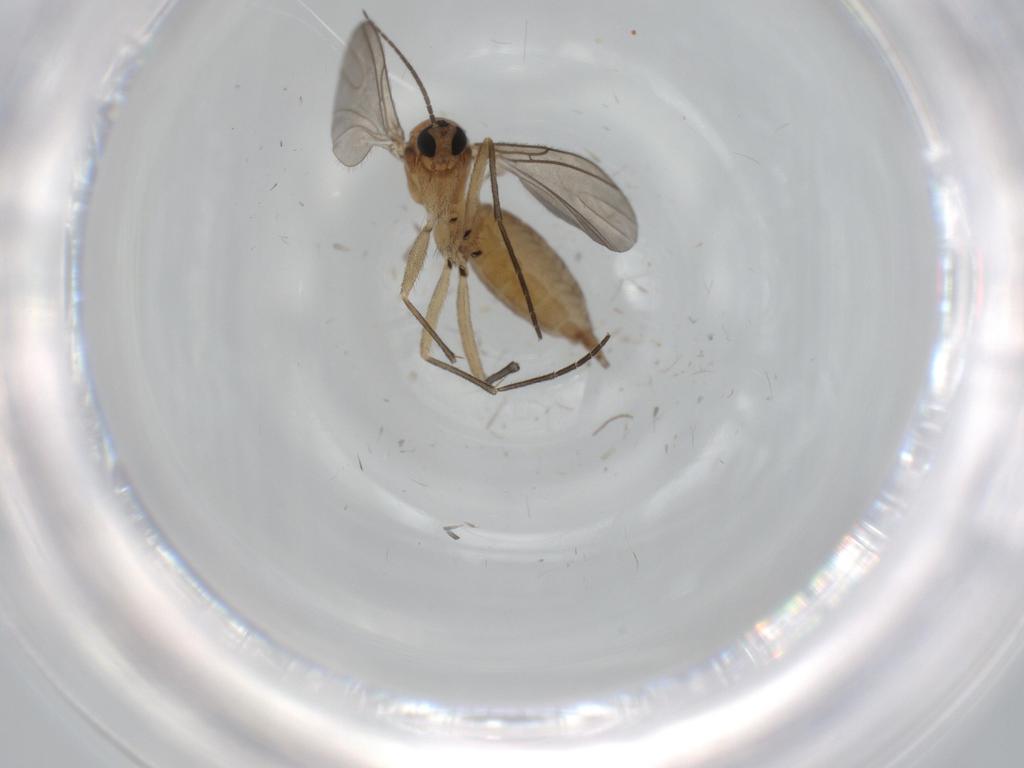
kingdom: Animalia
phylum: Arthropoda
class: Insecta
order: Diptera
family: Sciaridae
